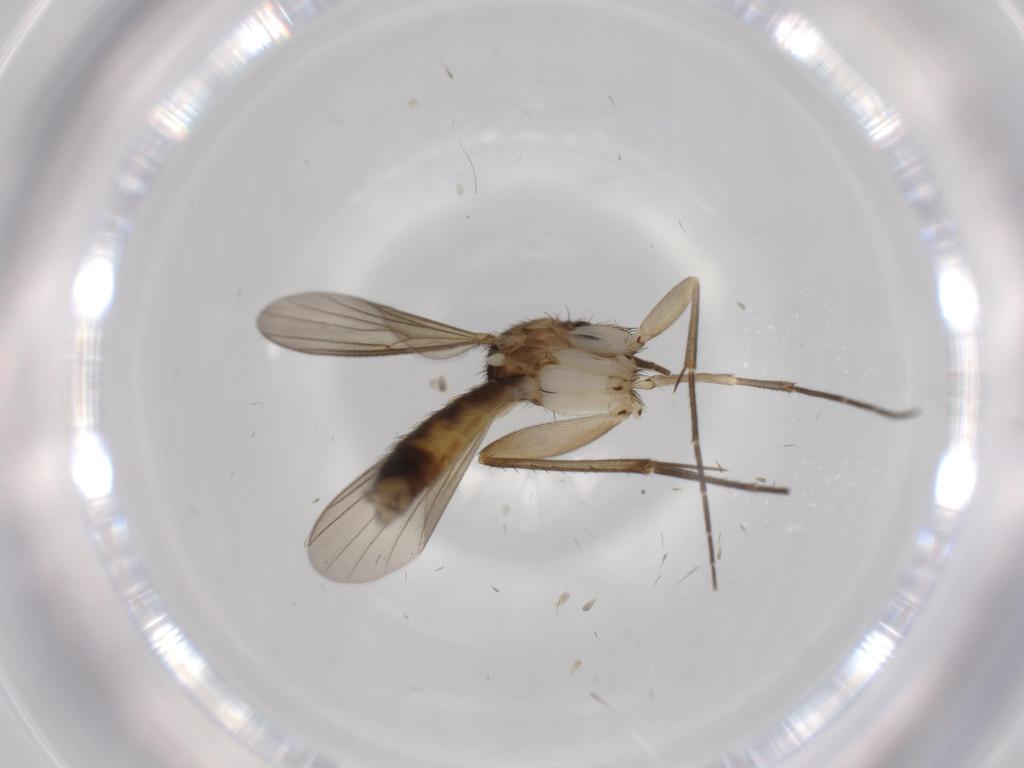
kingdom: Animalia
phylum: Arthropoda
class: Insecta
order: Diptera
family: Mycetophilidae
